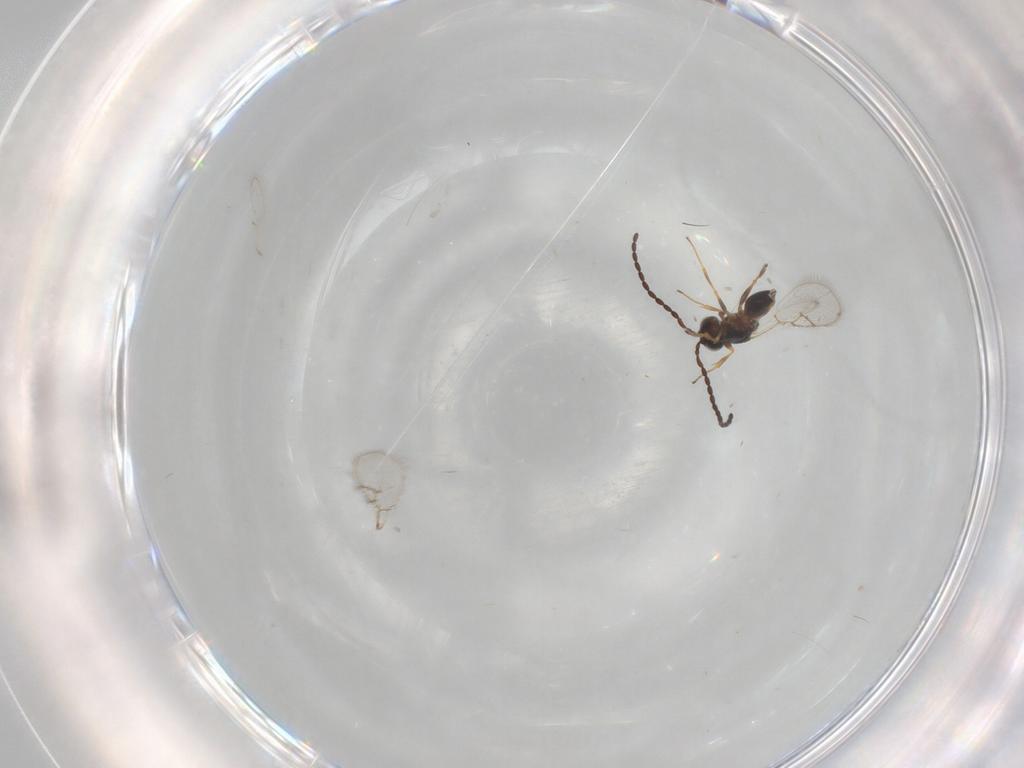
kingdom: Animalia
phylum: Arthropoda
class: Insecta
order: Hymenoptera
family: Figitidae
